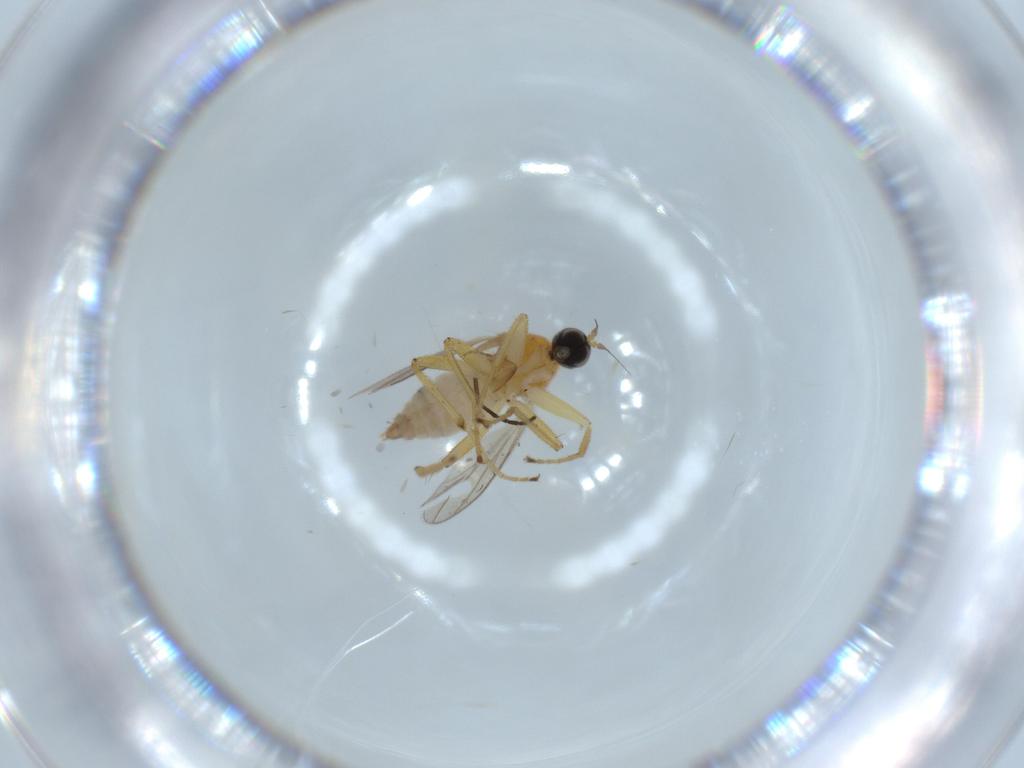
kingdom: Animalia
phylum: Arthropoda
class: Insecta
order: Diptera
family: Hybotidae
